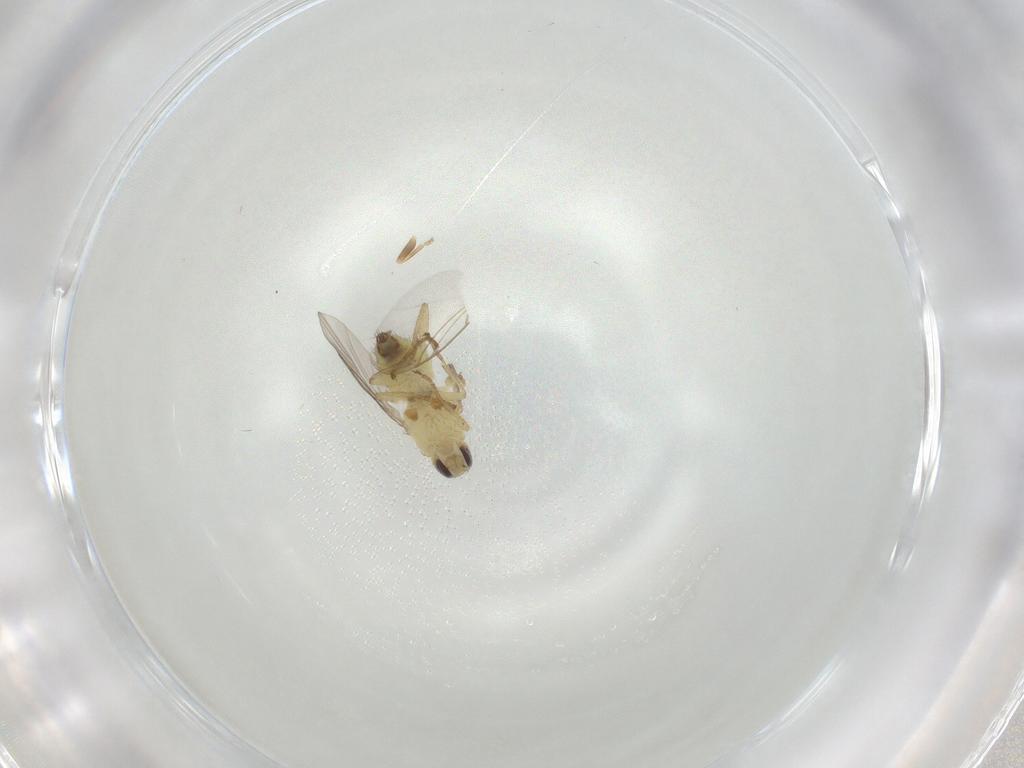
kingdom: Animalia
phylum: Arthropoda
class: Insecta
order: Diptera
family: Agromyzidae
